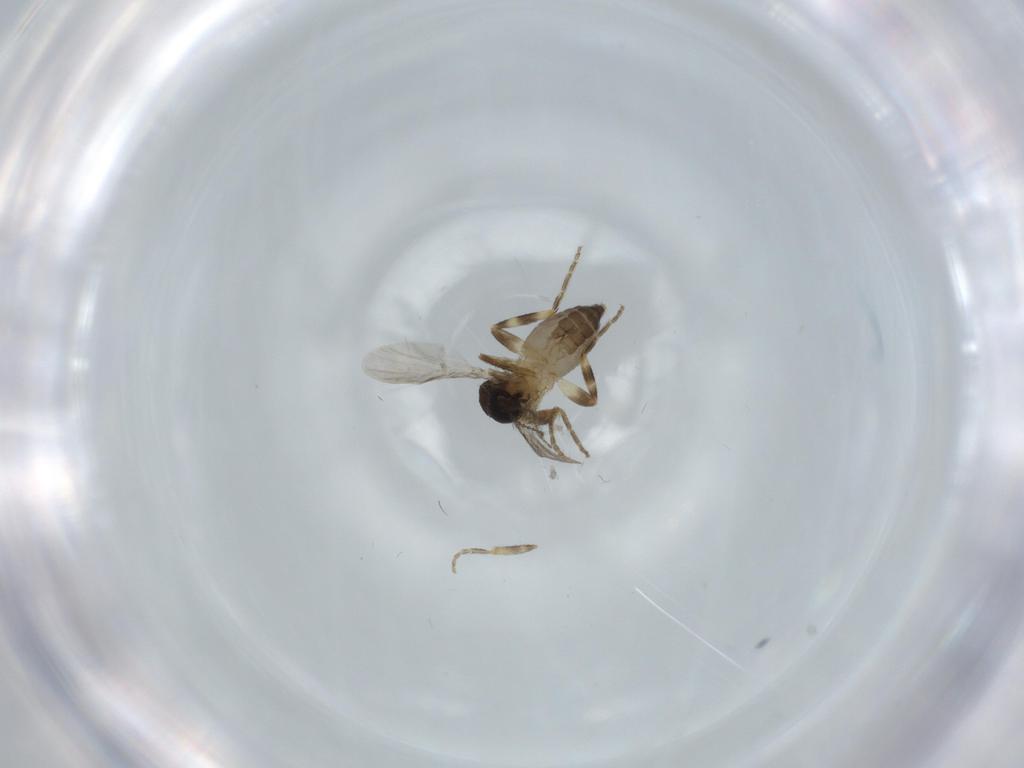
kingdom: Animalia
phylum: Arthropoda
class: Insecta
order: Diptera
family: Ceratopogonidae
